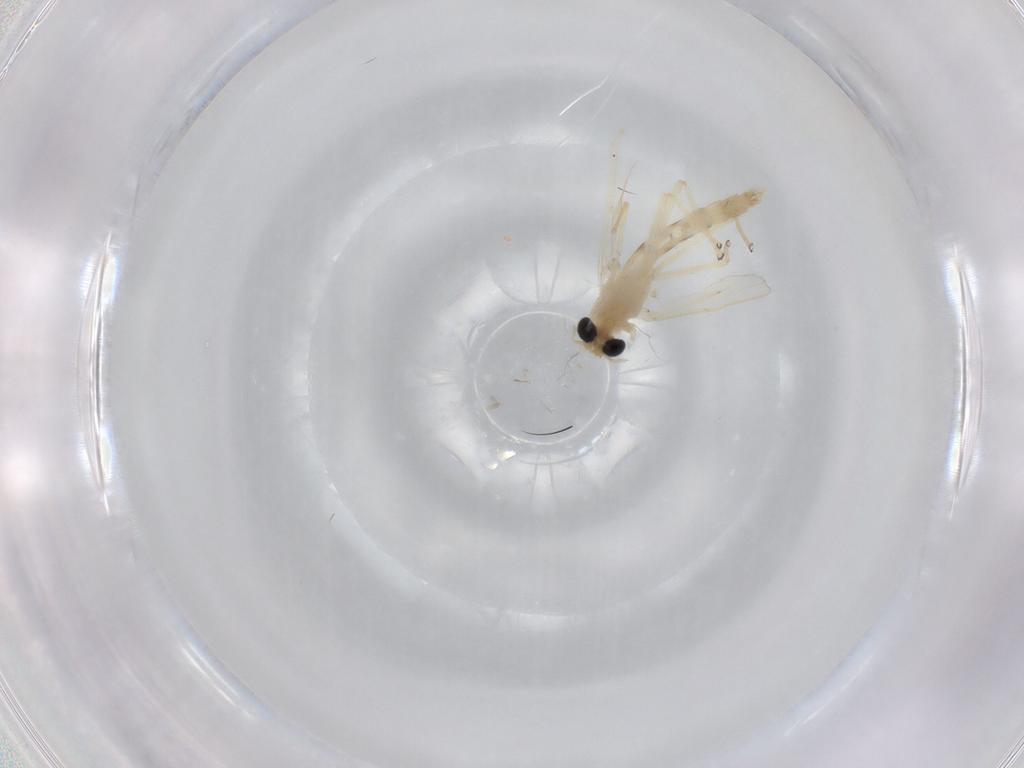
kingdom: Animalia
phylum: Arthropoda
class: Insecta
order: Diptera
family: Chironomidae
